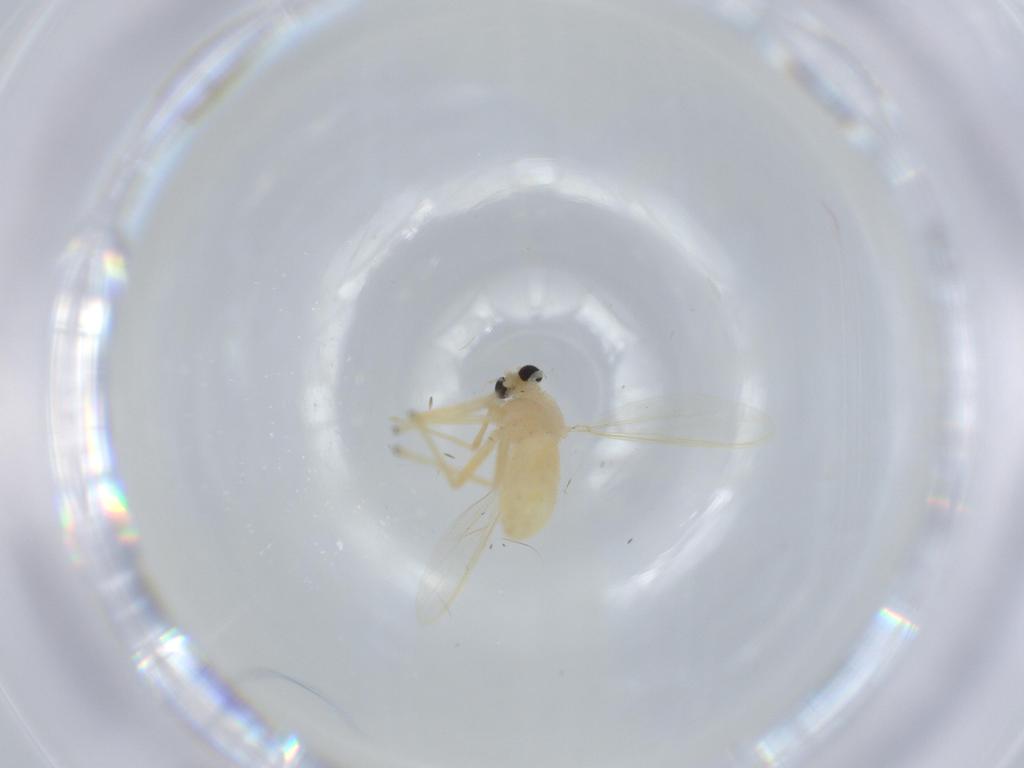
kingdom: Animalia
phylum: Arthropoda
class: Insecta
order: Diptera
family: Chironomidae
